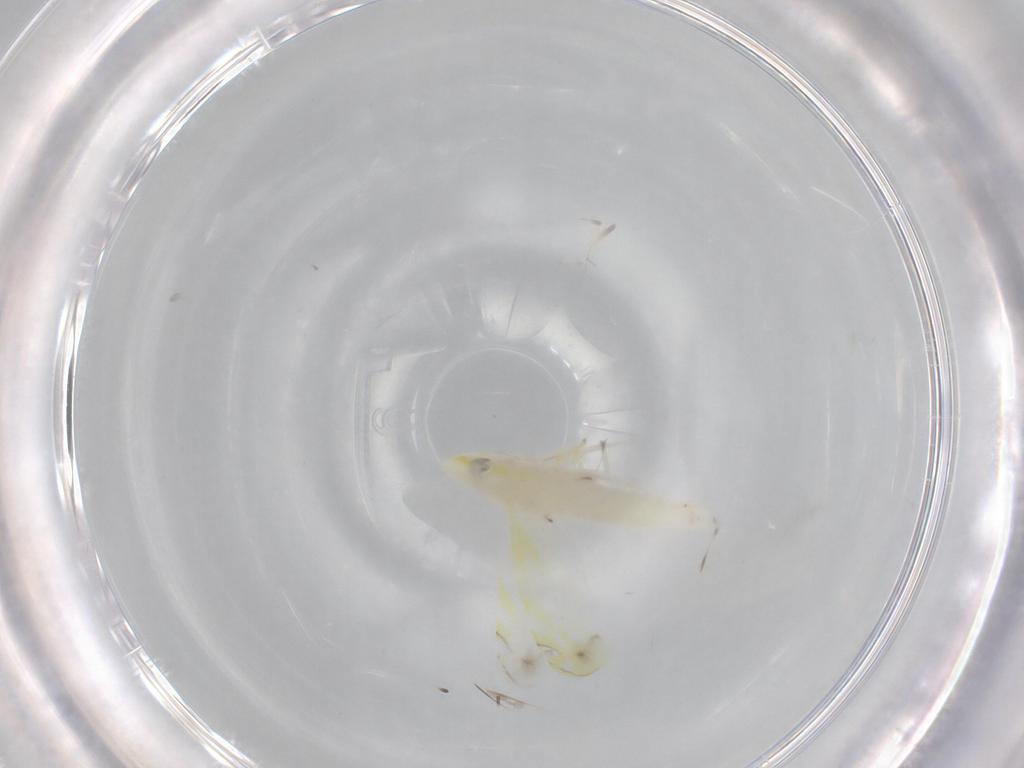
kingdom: Animalia
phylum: Arthropoda
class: Insecta
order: Hemiptera
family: Cicadellidae
